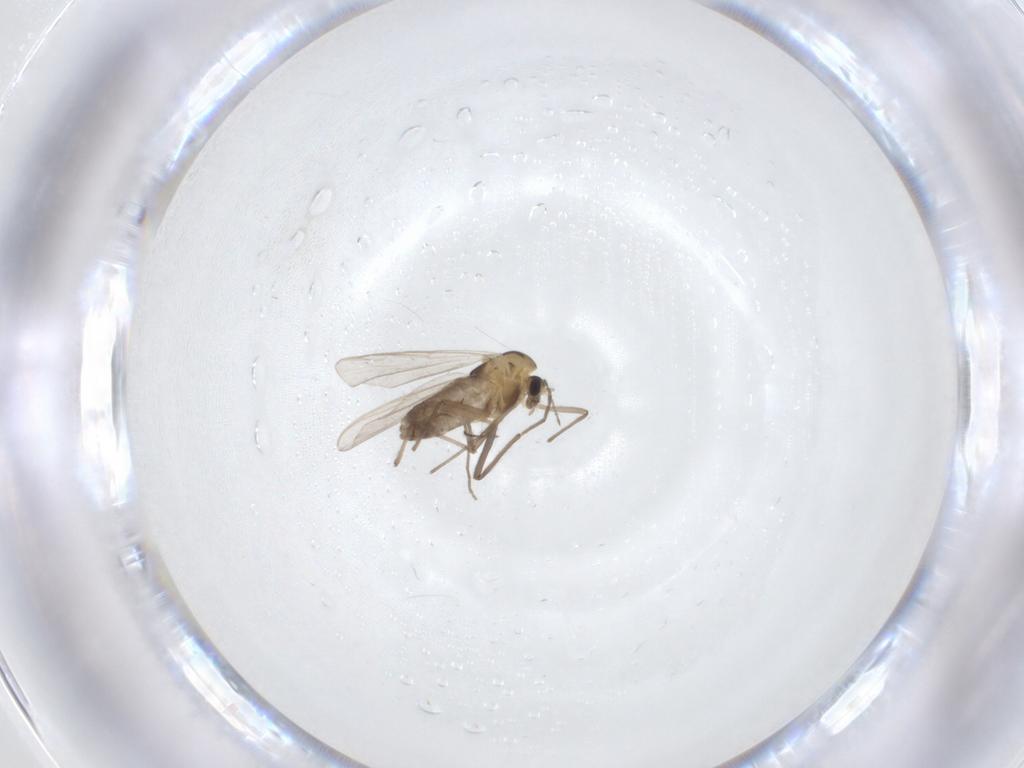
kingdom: Animalia
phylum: Arthropoda
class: Insecta
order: Diptera
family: Chironomidae
